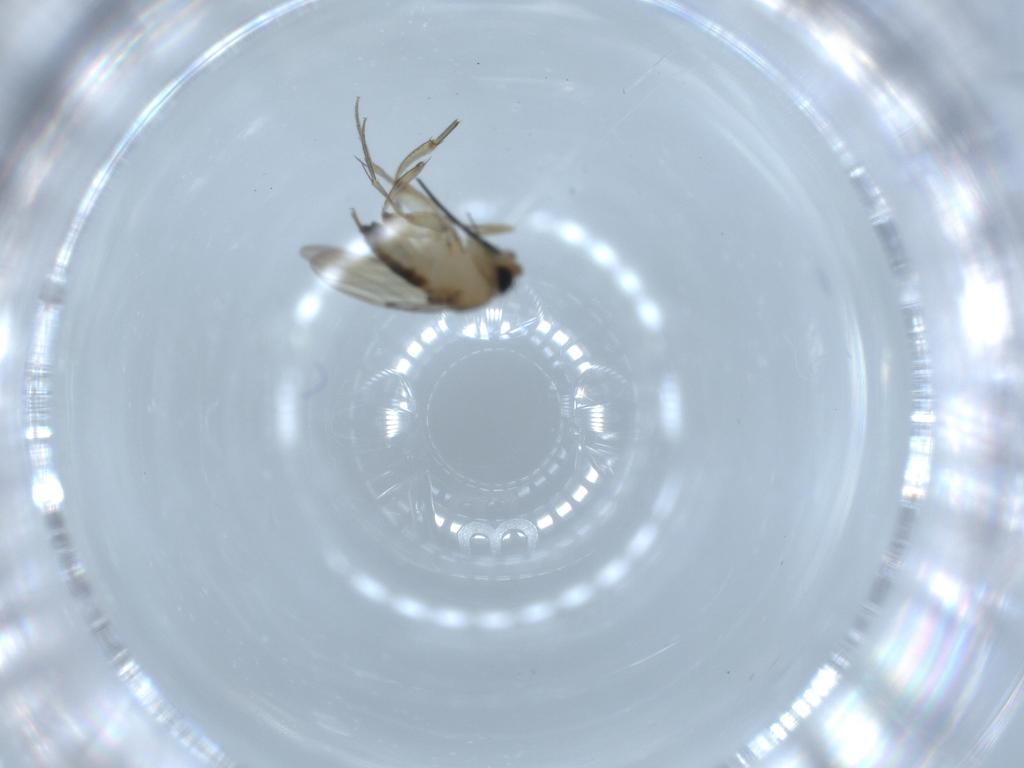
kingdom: Animalia
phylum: Arthropoda
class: Insecta
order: Diptera
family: Phoridae
